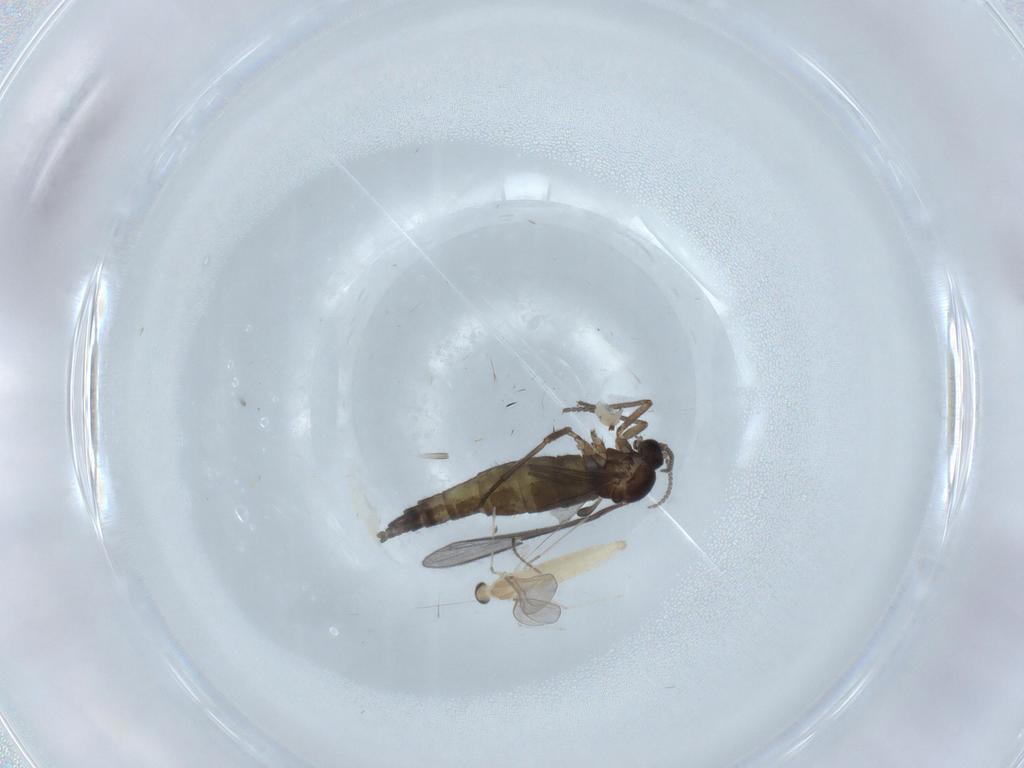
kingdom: Animalia
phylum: Arthropoda
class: Insecta
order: Diptera
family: Sciaridae
